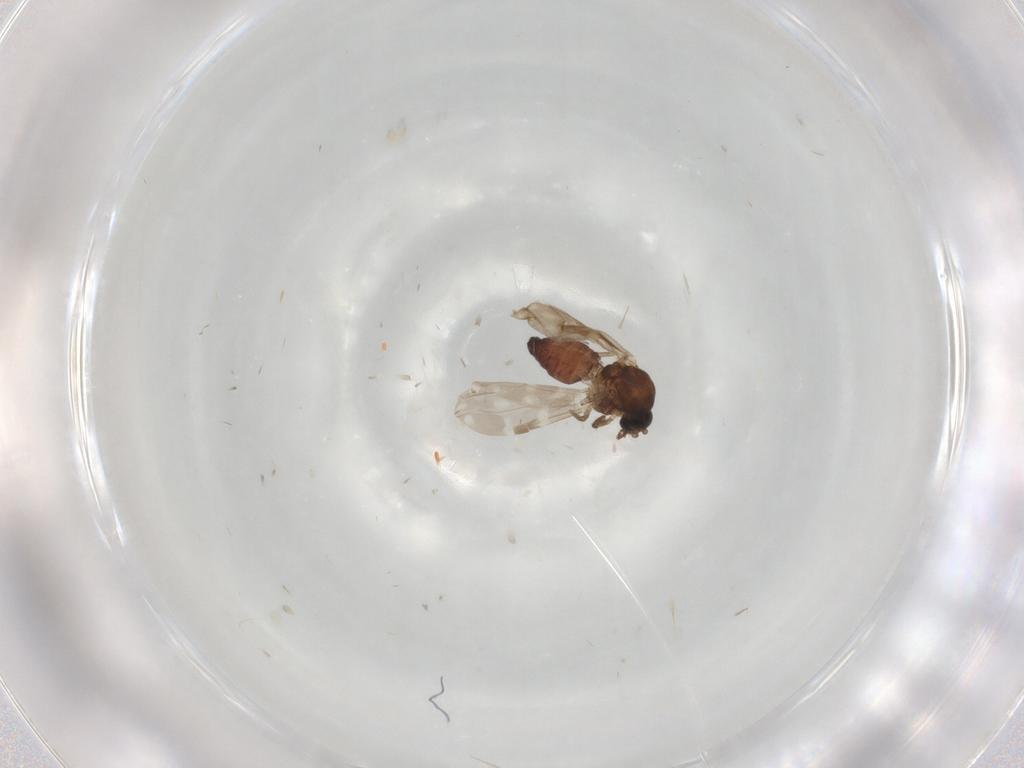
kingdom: Animalia
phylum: Arthropoda
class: Insecta
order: Diptera
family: Ceratopogonidae
